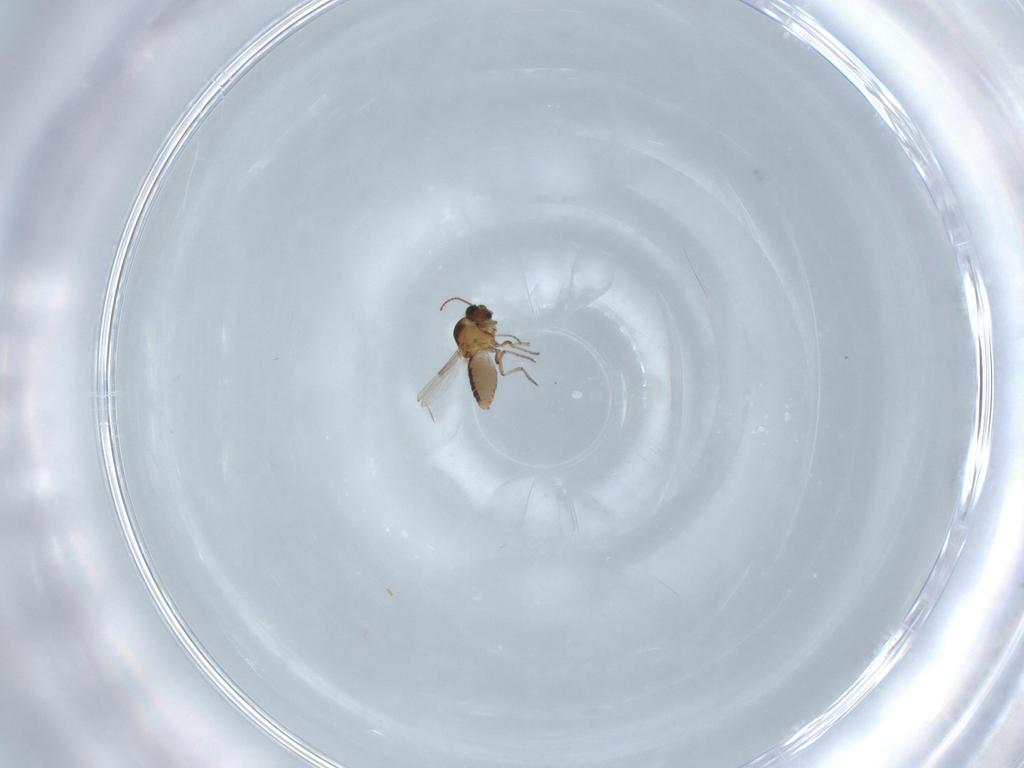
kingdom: Animalia
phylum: Arthropoda
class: Insecta
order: Diptera
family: Ceratopogonidae
